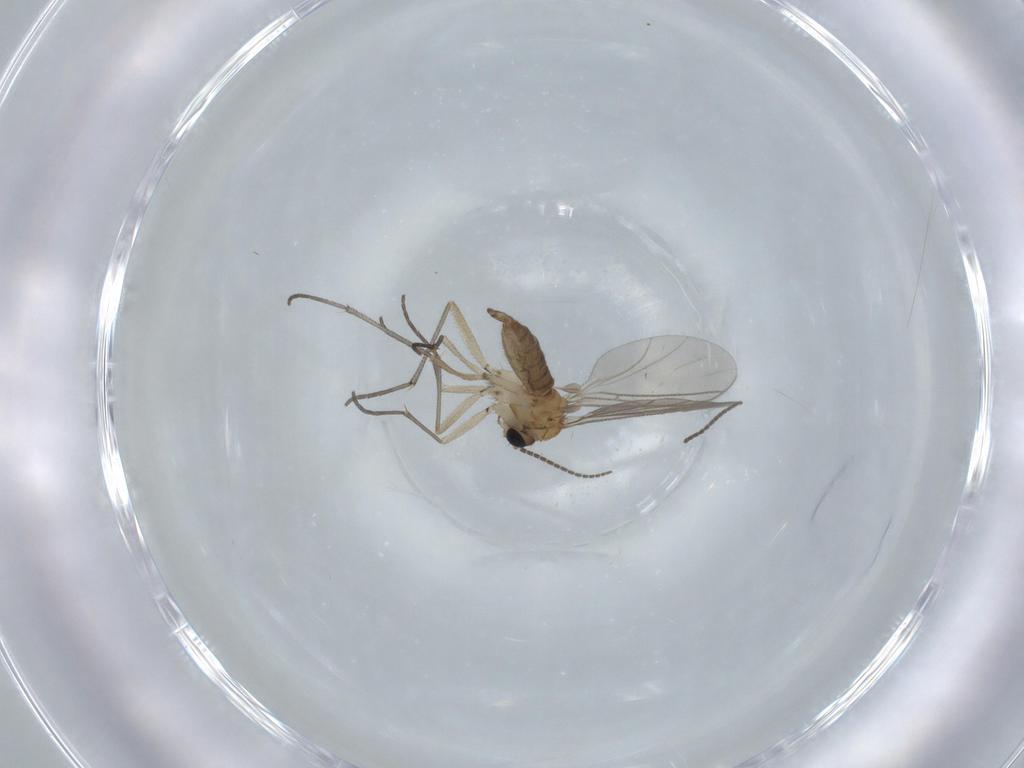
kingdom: Animalia
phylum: Arthropoda
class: Insecta
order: Diptera
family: Sciaridae
